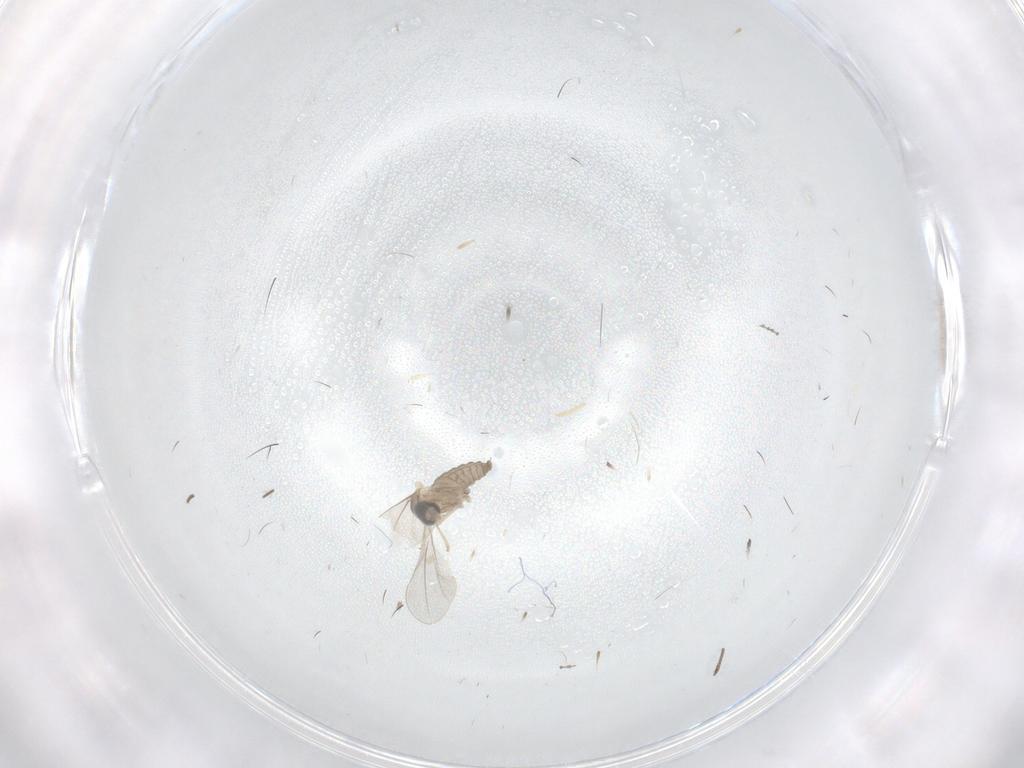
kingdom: Animalia
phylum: Arthropoda
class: Insecta
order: Diptera
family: Cecidomyiidae
